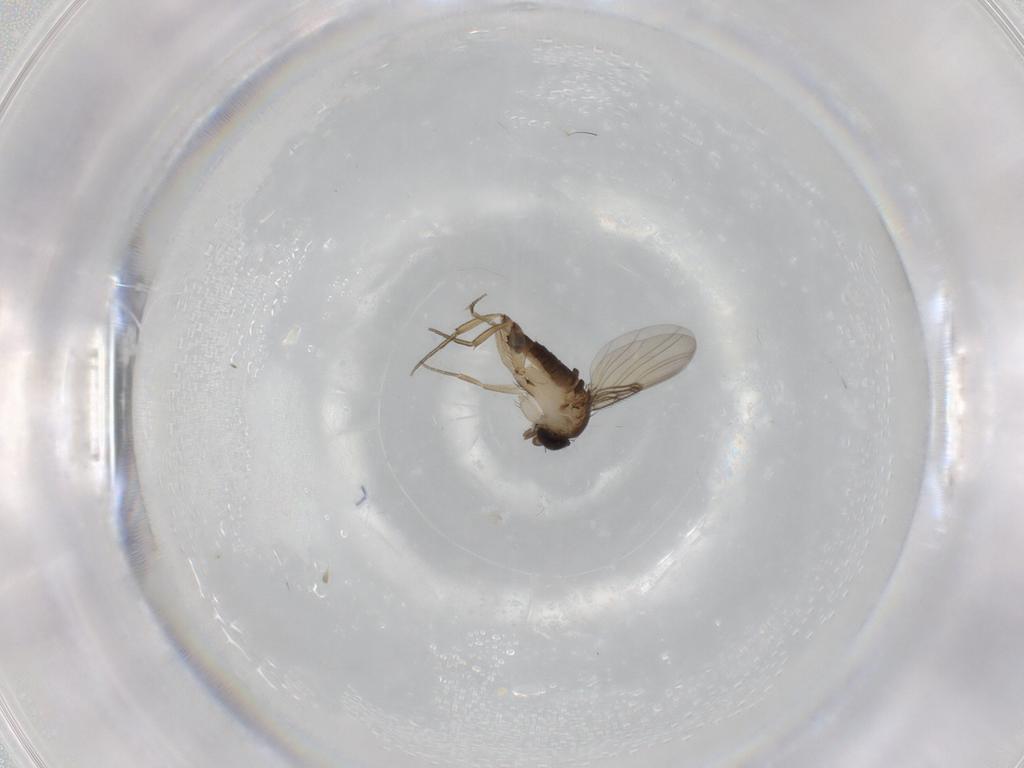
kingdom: Animalia
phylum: Arthropoda
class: Insecta
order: Diptera
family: Phoridae
